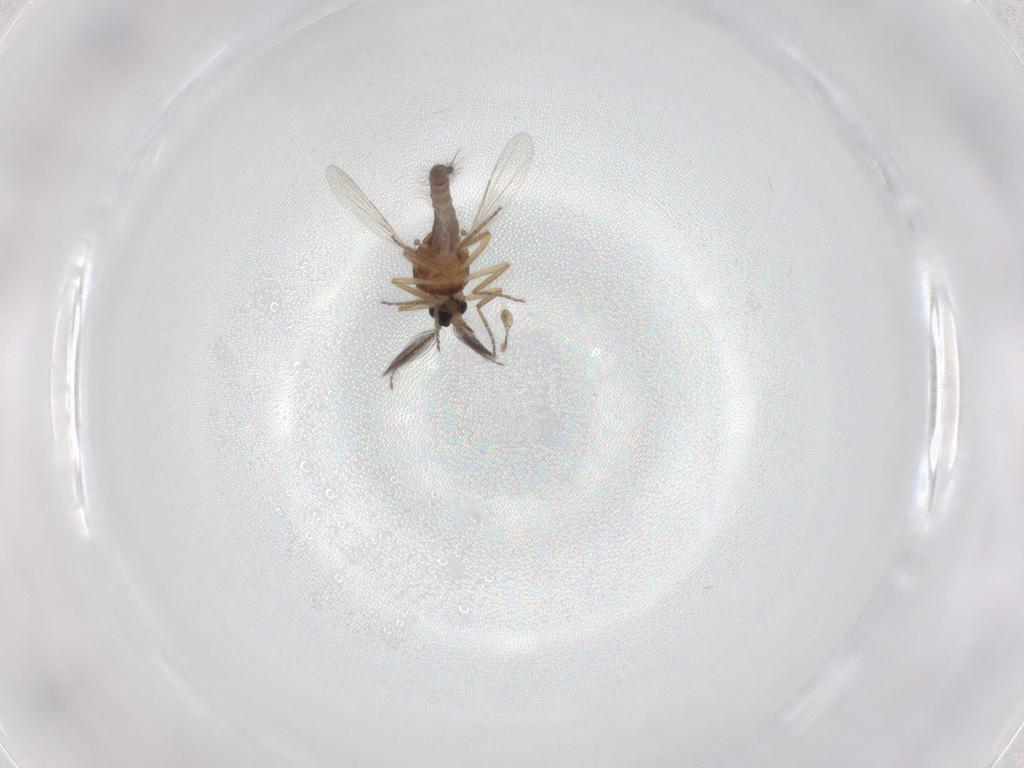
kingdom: Animalia
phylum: Arthropoda
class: Insecta
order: Diptera
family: Ceratopogonidae
